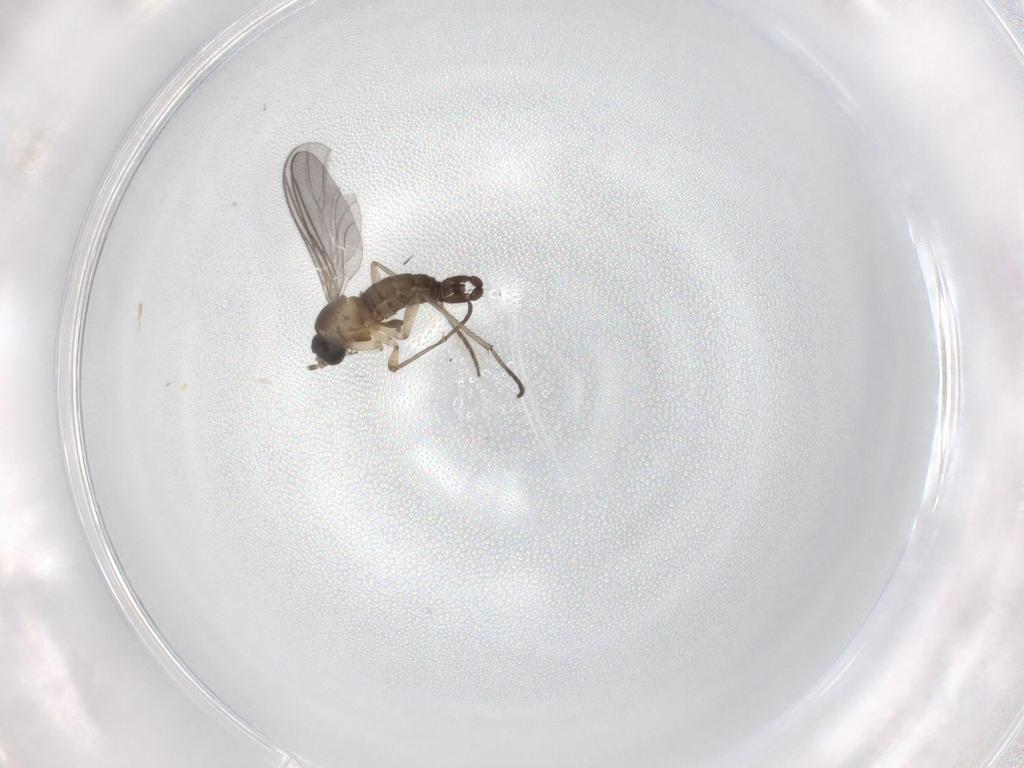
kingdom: Animalia
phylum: Arthropoda
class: Insecta
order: Diptera
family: Sciaridae
